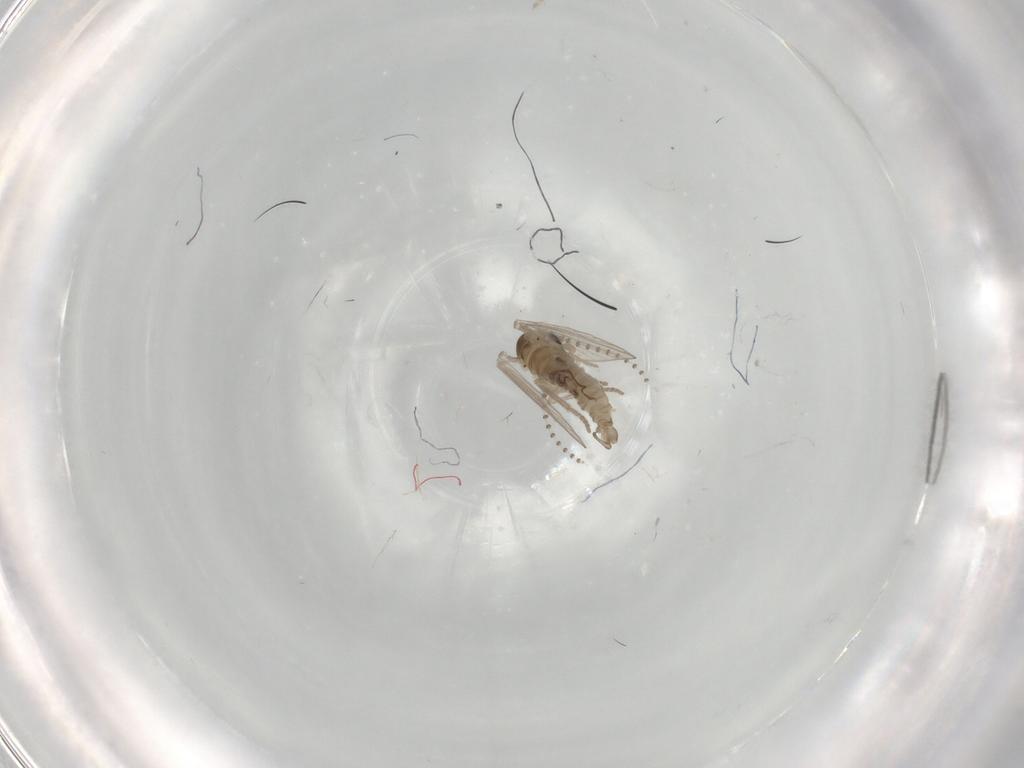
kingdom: Animalia
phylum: Arthropoda
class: Insecta
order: Diptera
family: Psychodidae
